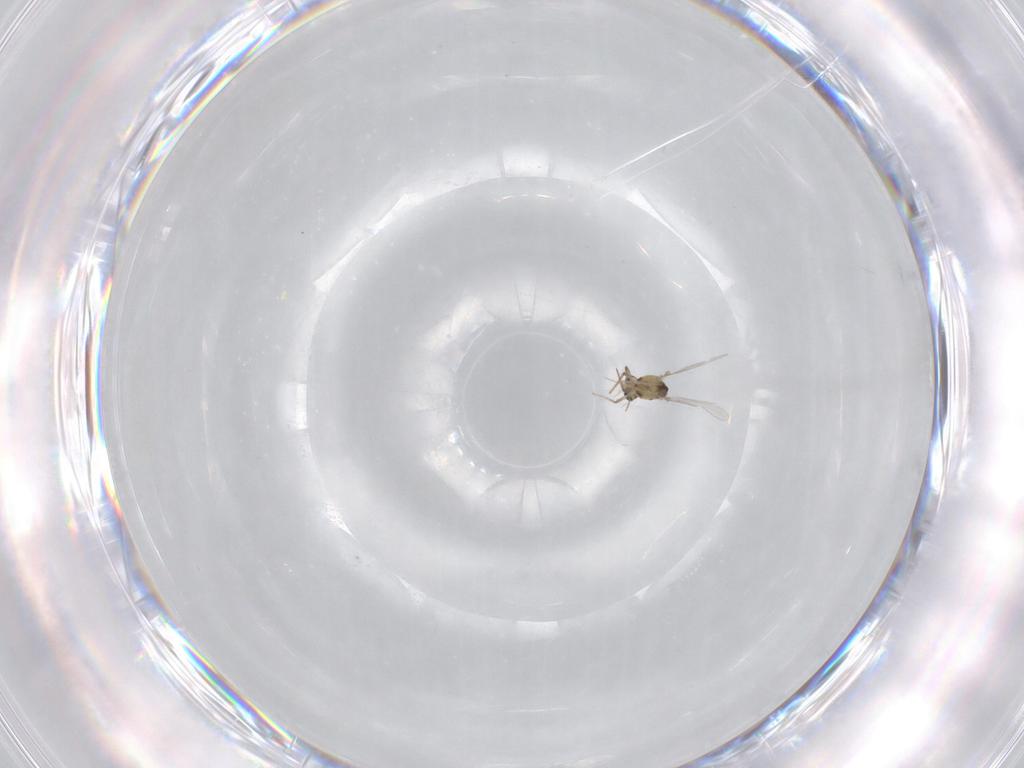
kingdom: Animalia
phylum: Arthropoda
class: Insecta
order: Diptera
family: Chironomidae
